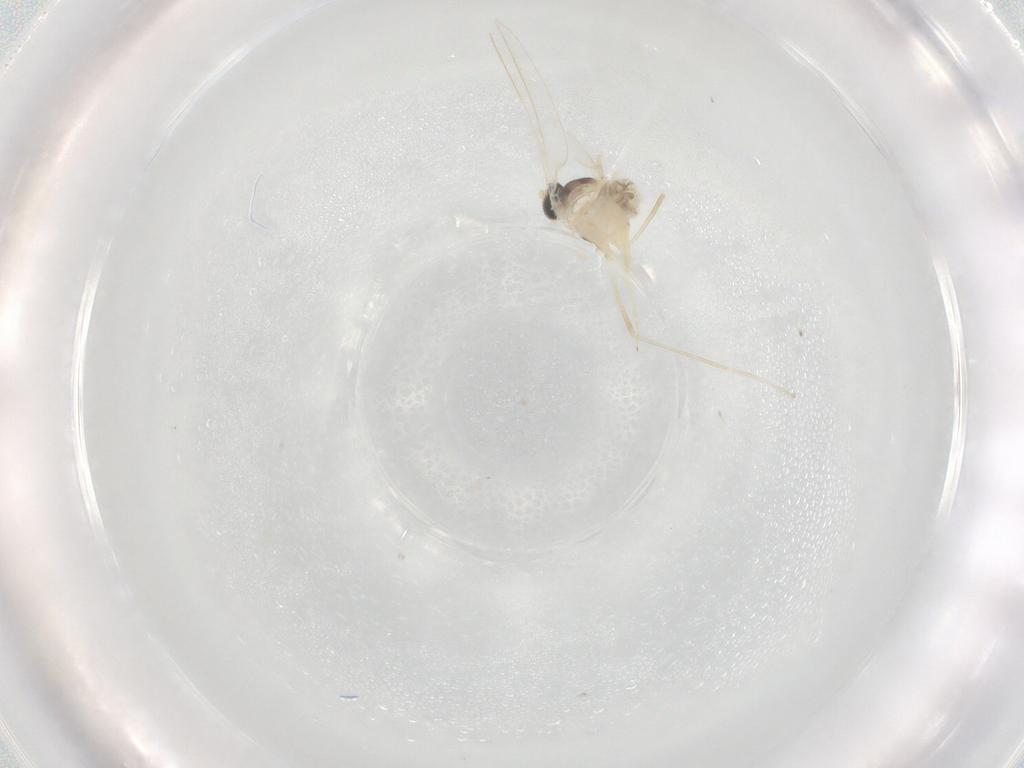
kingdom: Animalia
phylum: Arthropoda
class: Insecta
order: Diptera
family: Cecidomyiidae
